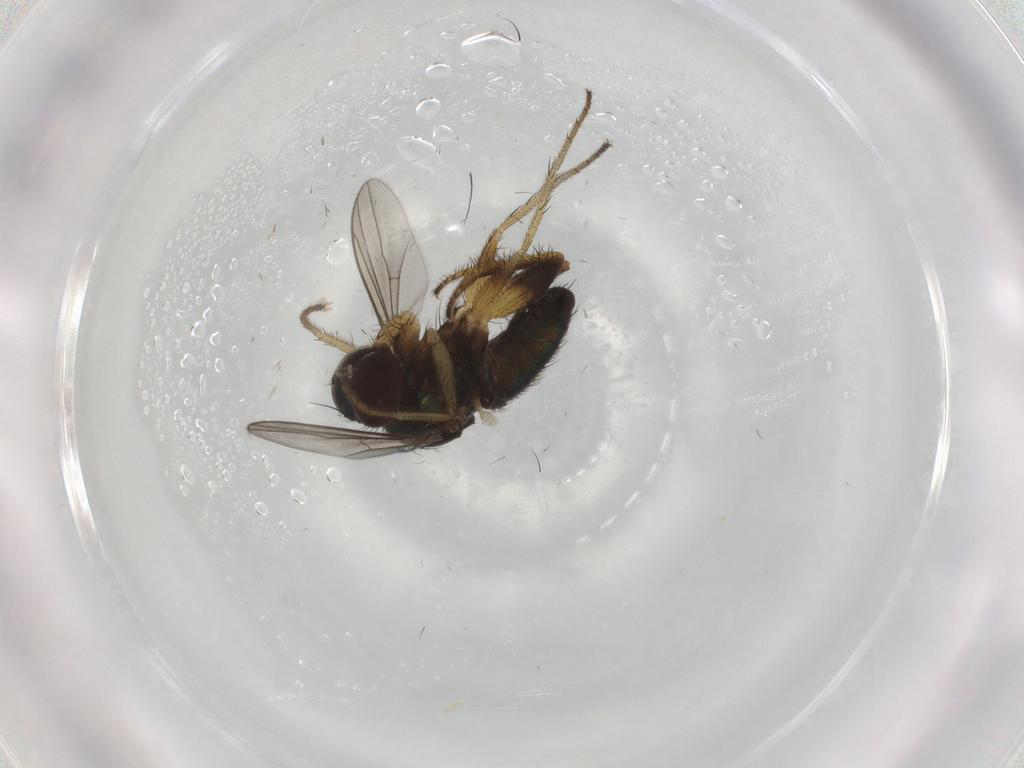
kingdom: Animalia
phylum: Arthropoda
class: Insecta
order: Diptera
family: Dolichopodidae
